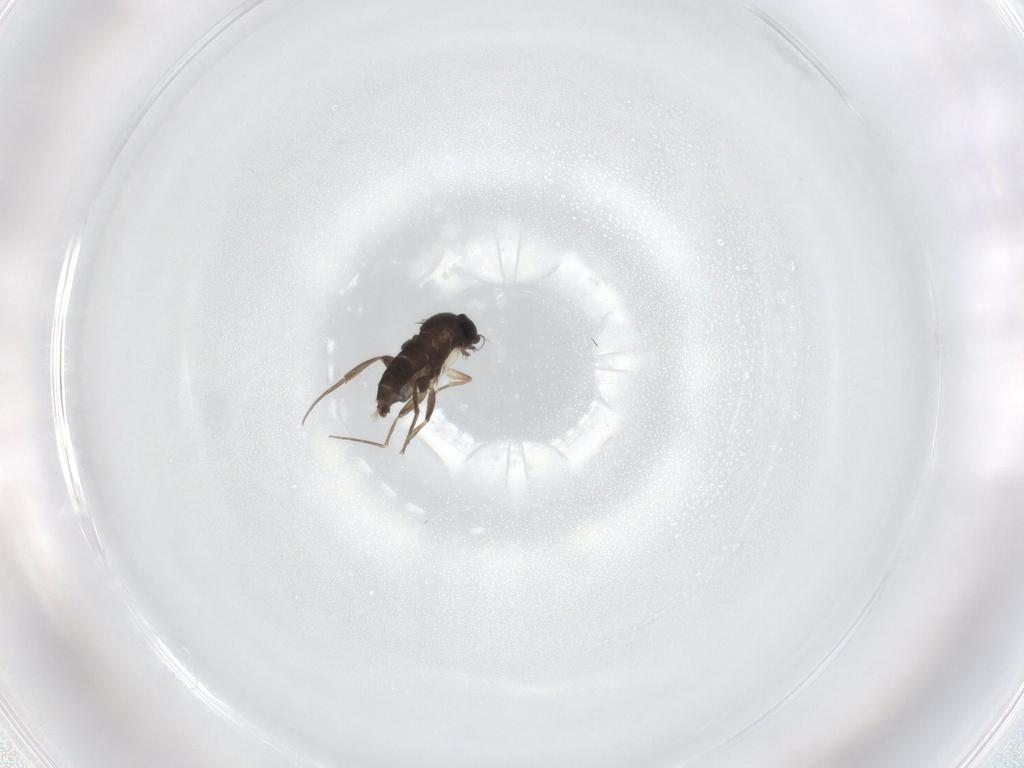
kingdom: Animalia
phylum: Arthropoda
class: Insecta
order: Diptera
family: Phoridae
